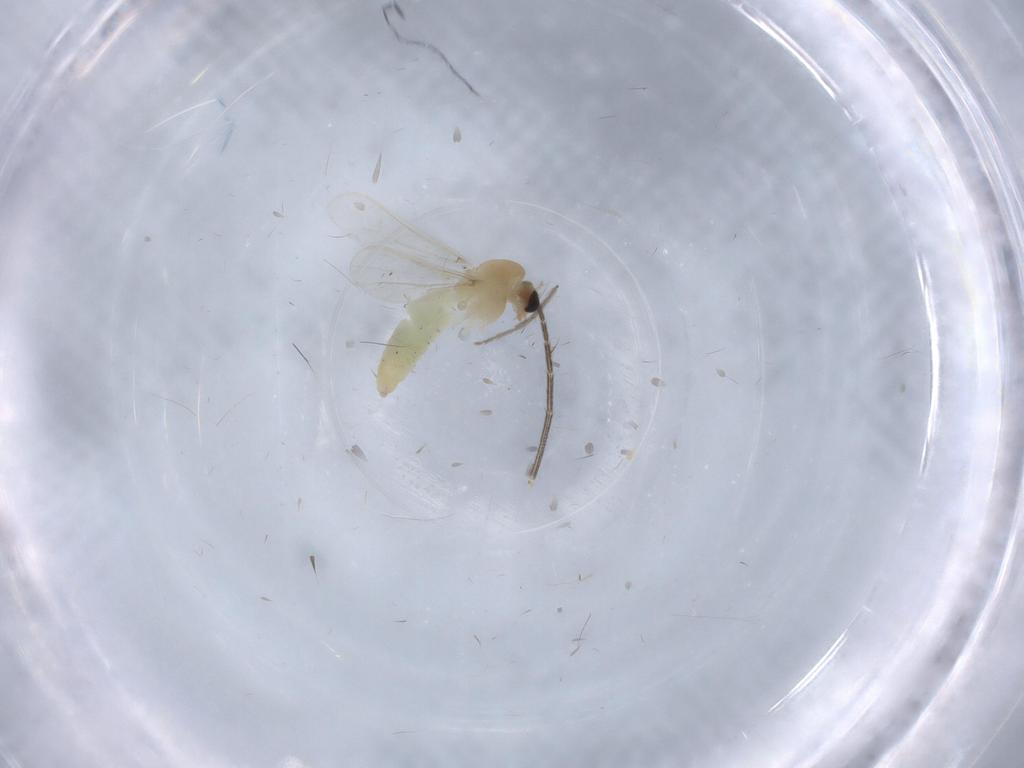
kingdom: Animalia
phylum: Arthropoda
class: Insecta
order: Diptera
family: Chironomidae
